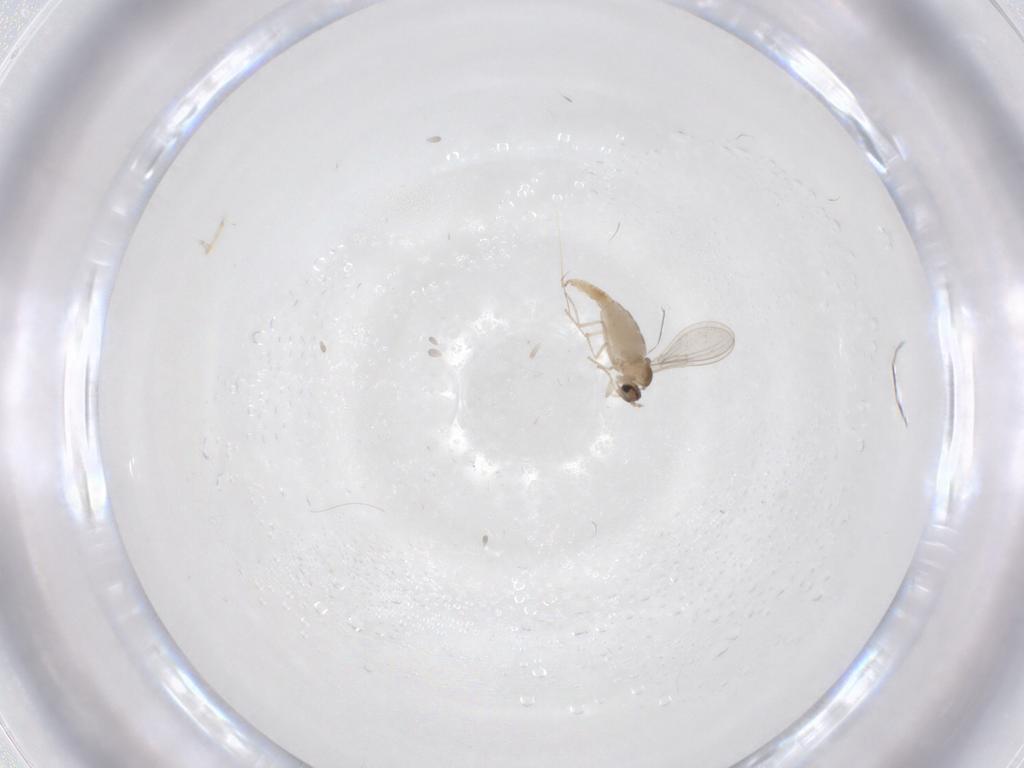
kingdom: Animalia
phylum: Arthropoda
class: Insecta
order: Diptera
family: Cecidomyiidae
